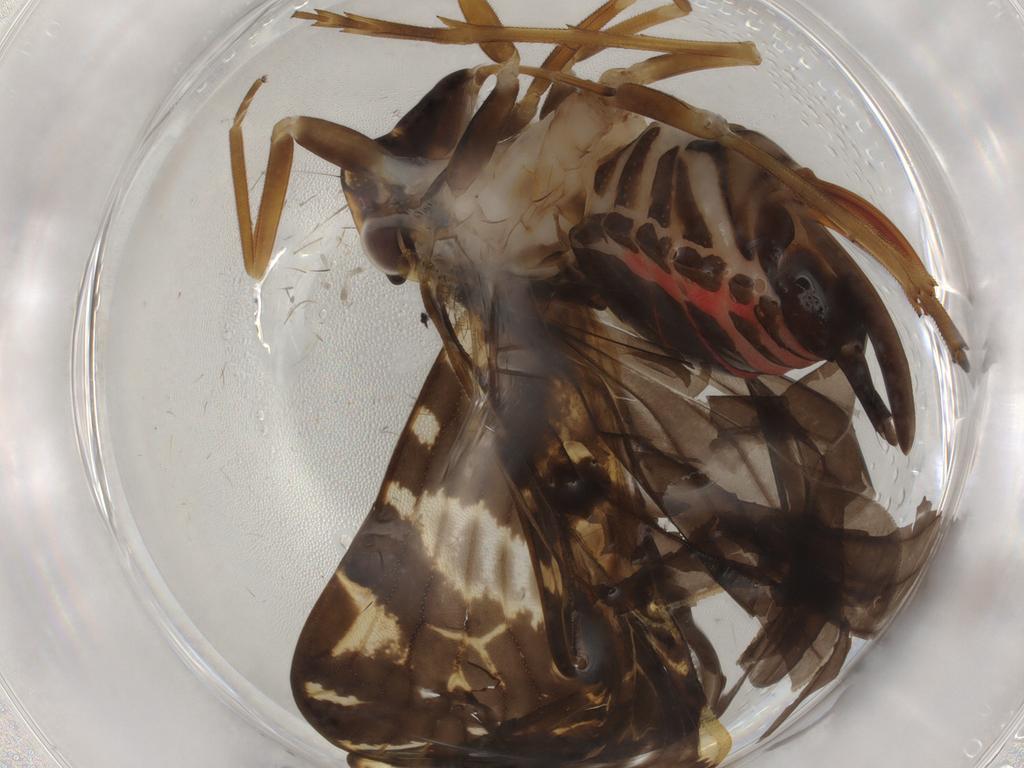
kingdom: Animalia
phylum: Arthropoda
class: Insecta
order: Hemiptera
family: Cixiidae
